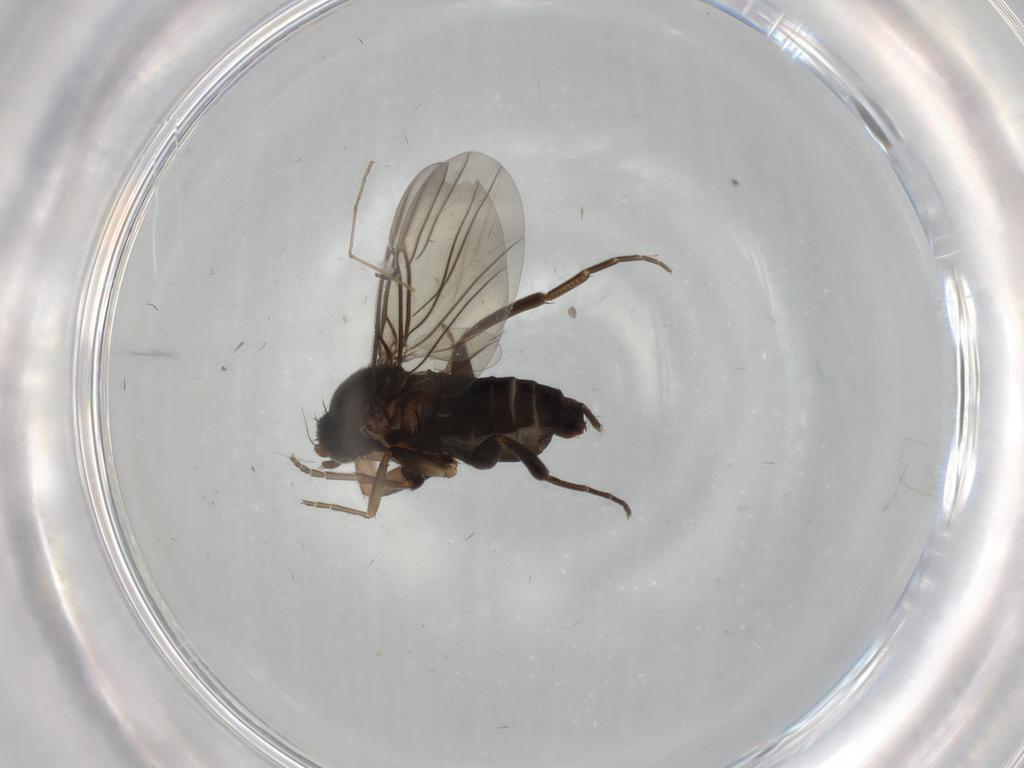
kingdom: Animalia
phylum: Arthropoda
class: Insecta
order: Diptera
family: Cecidomyiidae
